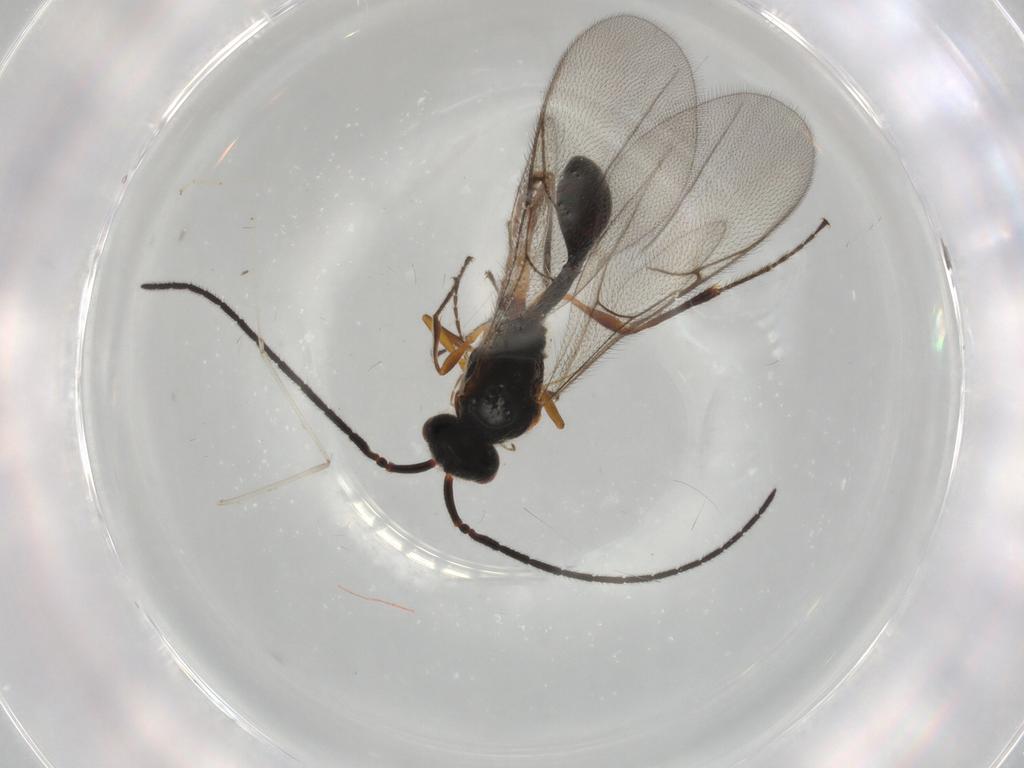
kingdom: Animalia
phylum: Arthropoda
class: Insecta
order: Hymenoptera
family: Diapriidae
